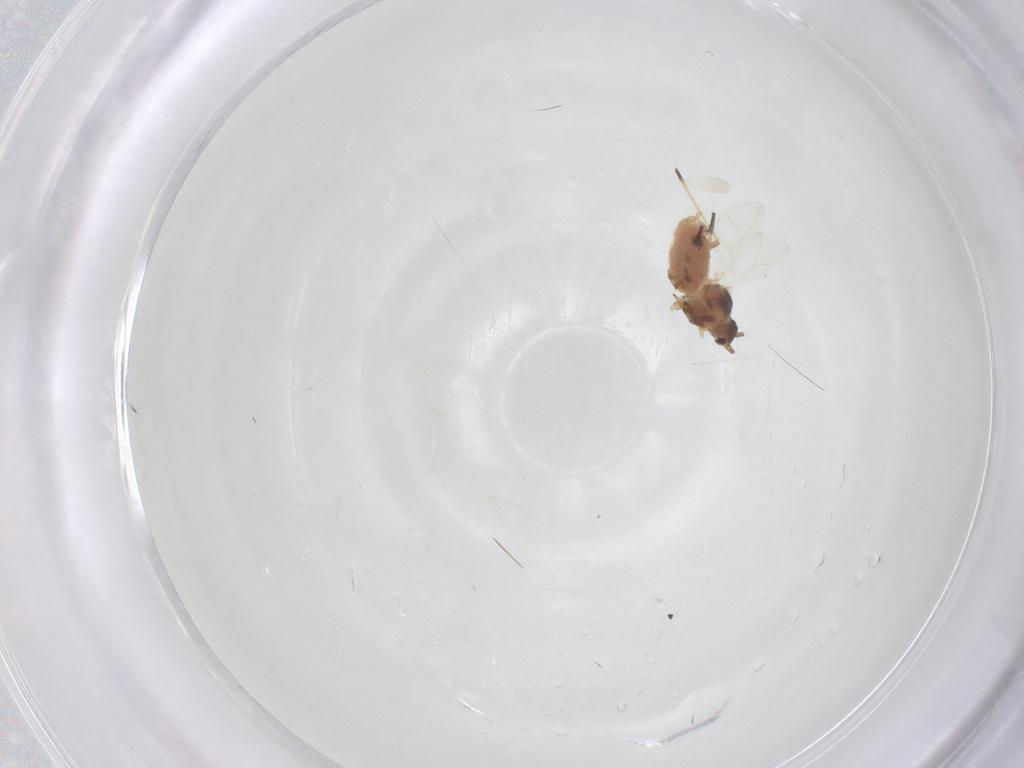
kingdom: Animalia
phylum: Arthropoda
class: Insecta
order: Hemiptera
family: Aphididae
